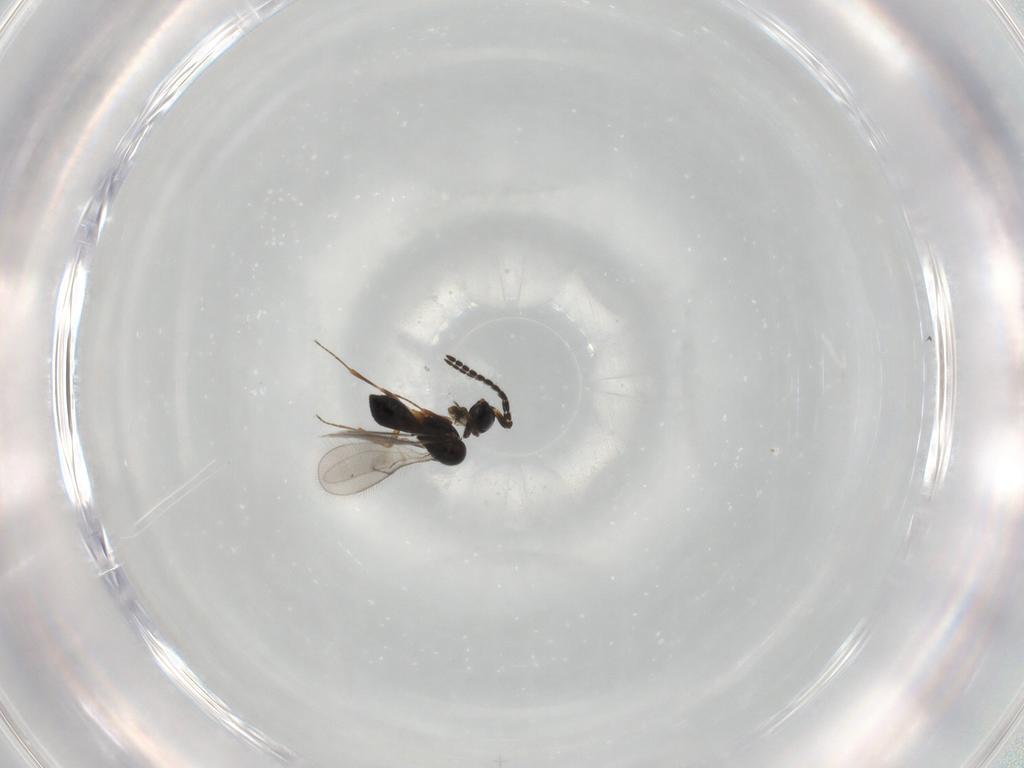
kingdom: Animalia
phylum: Arthropoda
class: Insecta
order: Hymenoptera
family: Scelionidae
